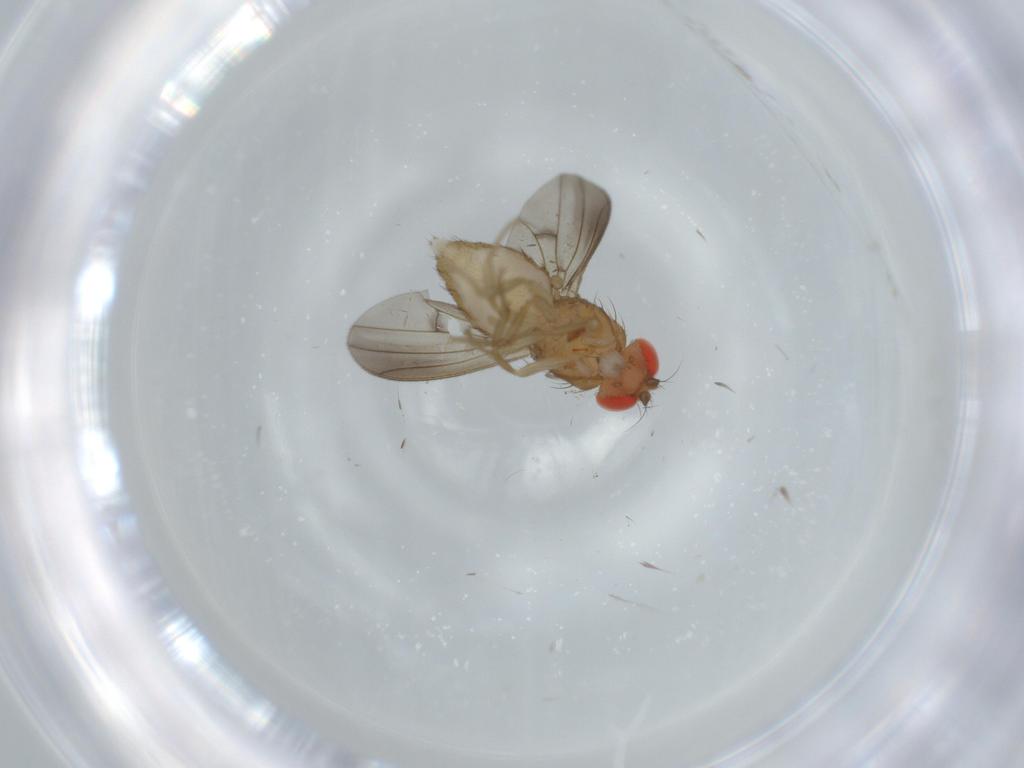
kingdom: Animalia
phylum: Arthropoda
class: Insecta
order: Diptera
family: Drosophilidae
